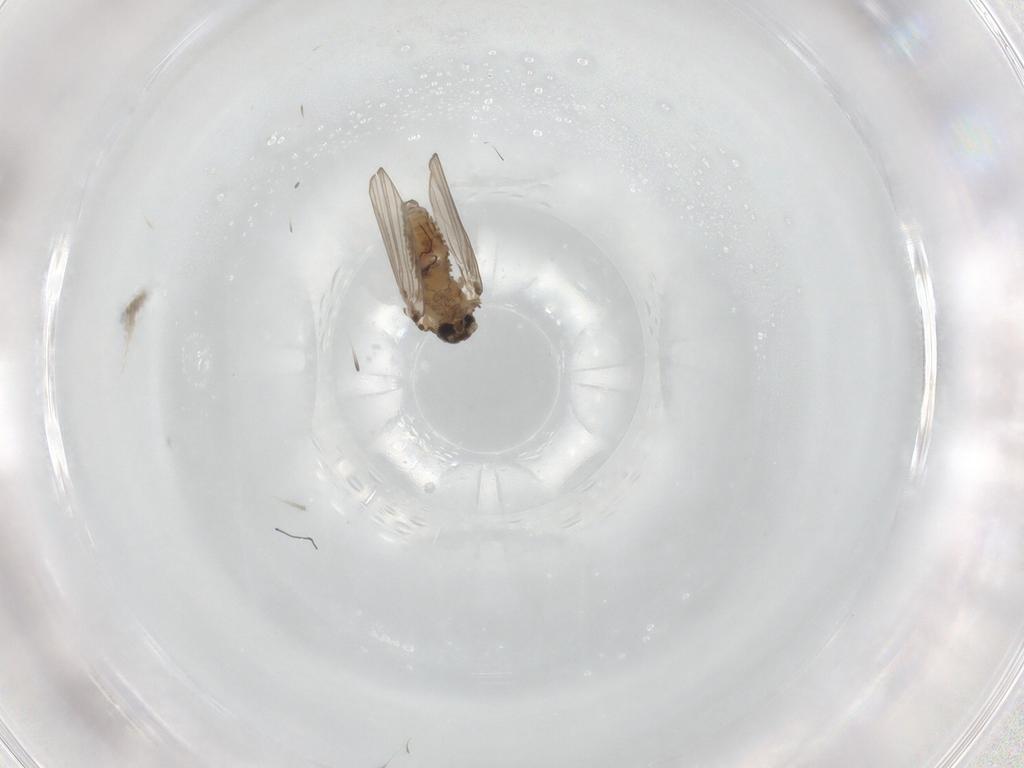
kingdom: Animalia
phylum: Arthropoda
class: Insecta
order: Diptera
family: Psychodidae
